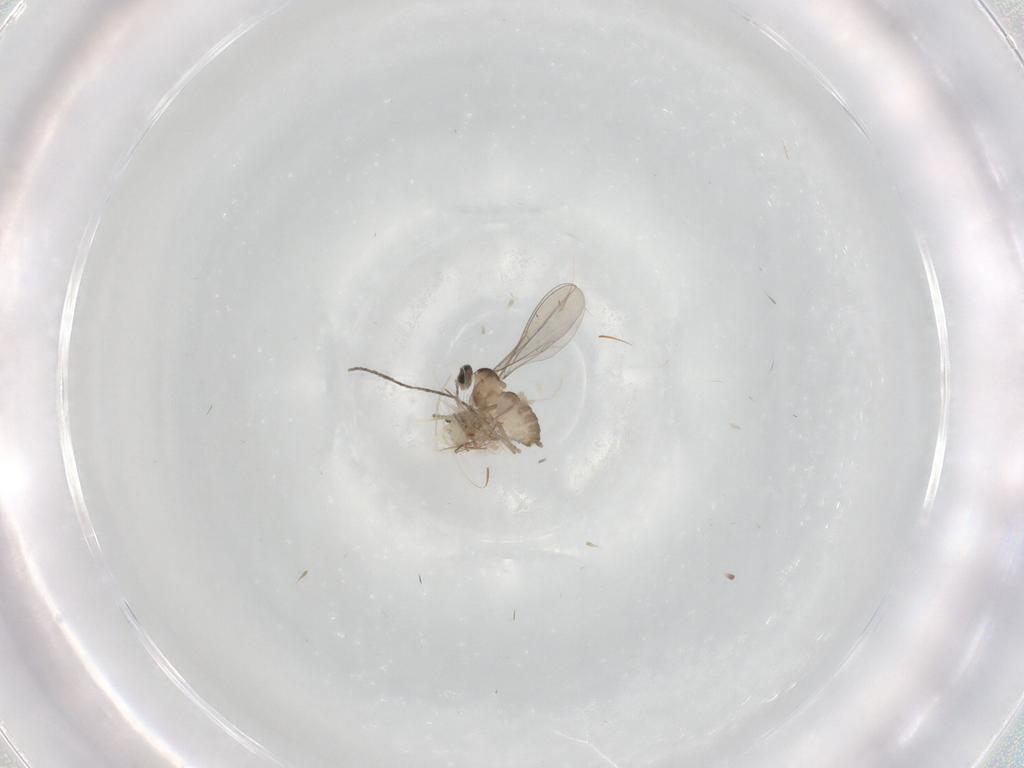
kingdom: Animalia
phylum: Arthropoda
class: Insecta
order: Diptera
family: Cecidomyiidae
